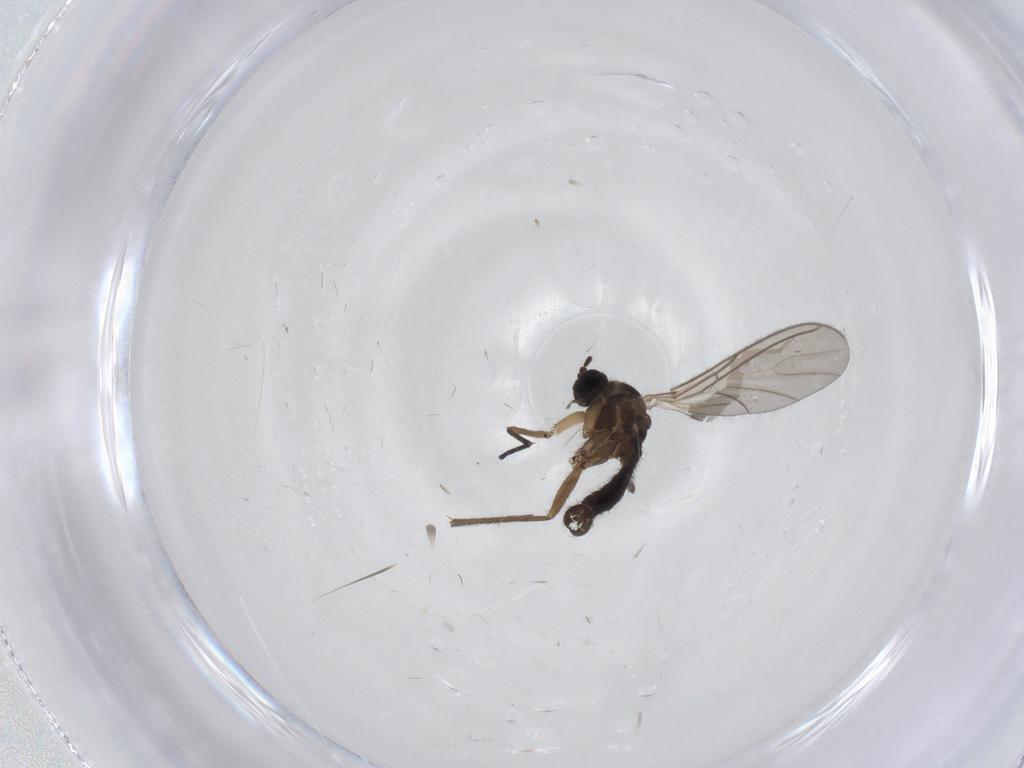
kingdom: Animalia
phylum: Arthropoda
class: Insecta
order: Diptera
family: Sciaridae
